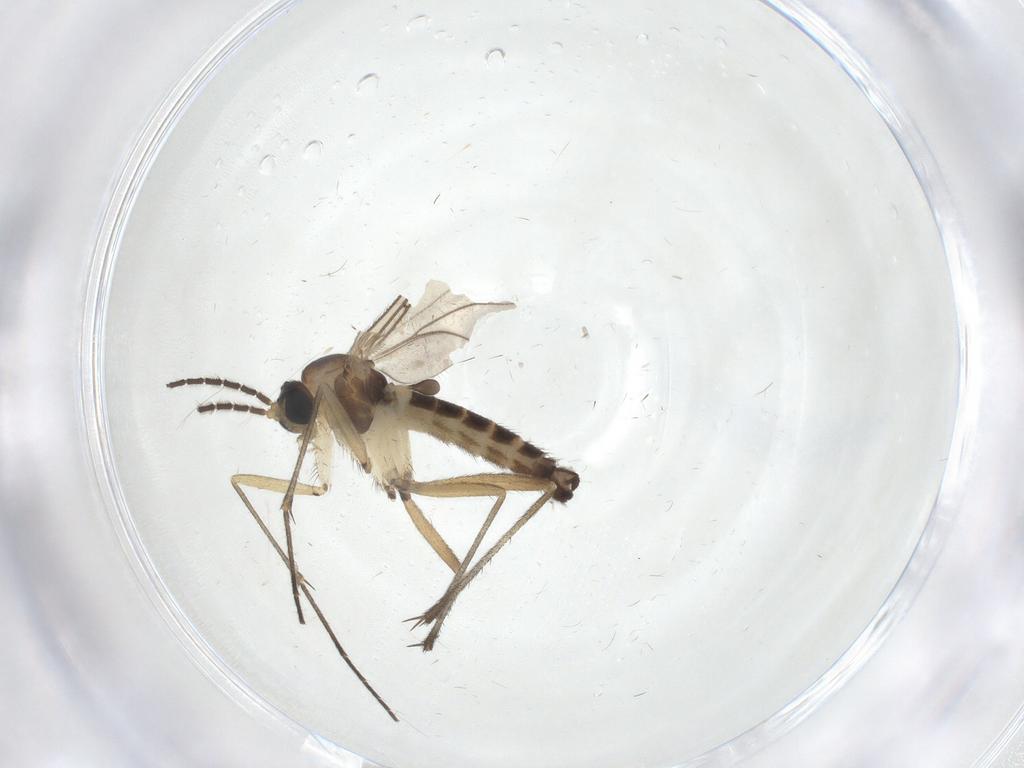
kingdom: Animalia
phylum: Arthropoda
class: Insecta
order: Diptera
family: Sciaridae
